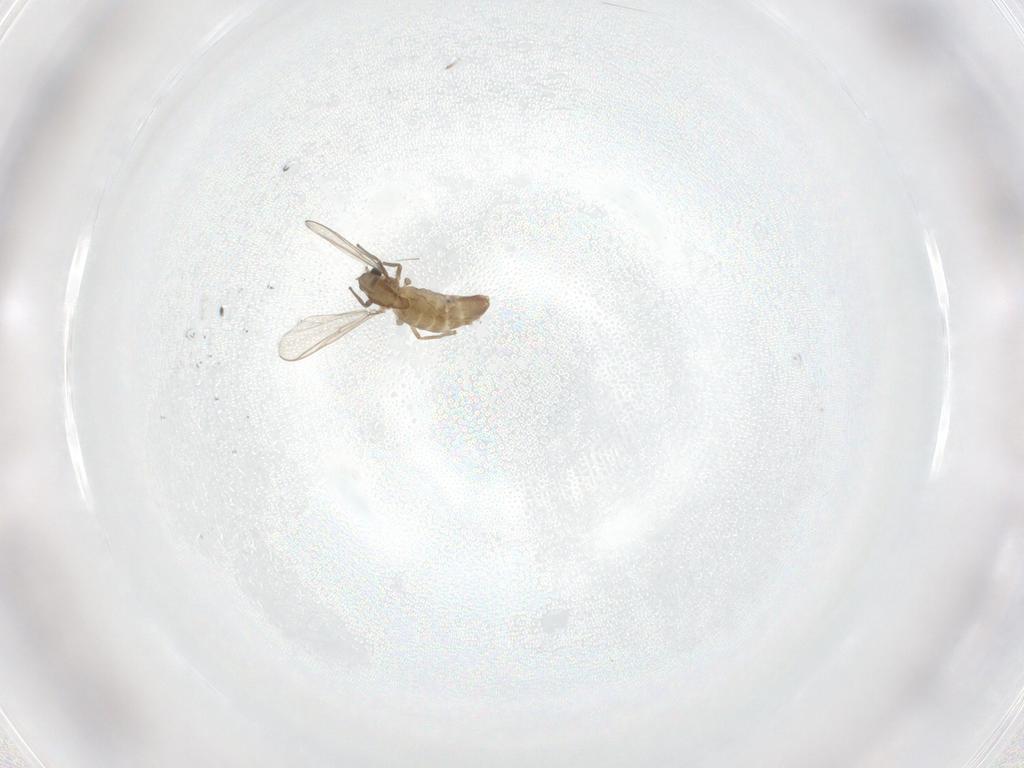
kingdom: Animalia
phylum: Arthropoda
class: Insecta
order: Diptera
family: Chironomidae
